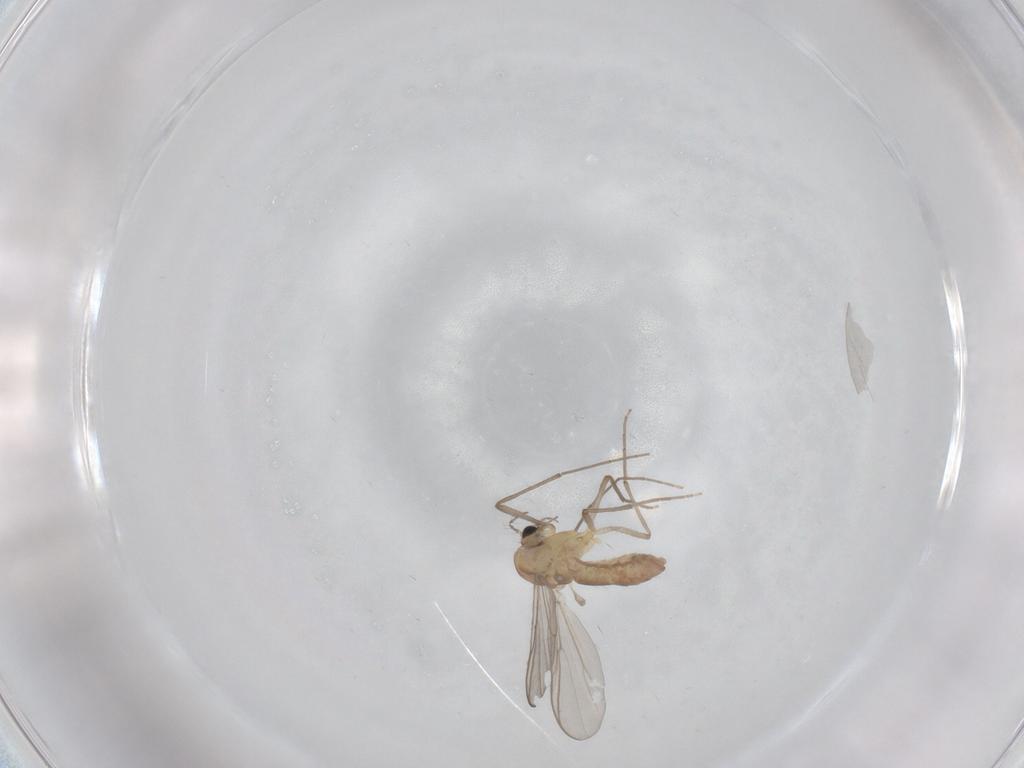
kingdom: Animalia
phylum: Arthropoda
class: Insecta
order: Diptera
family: Chironomidae
